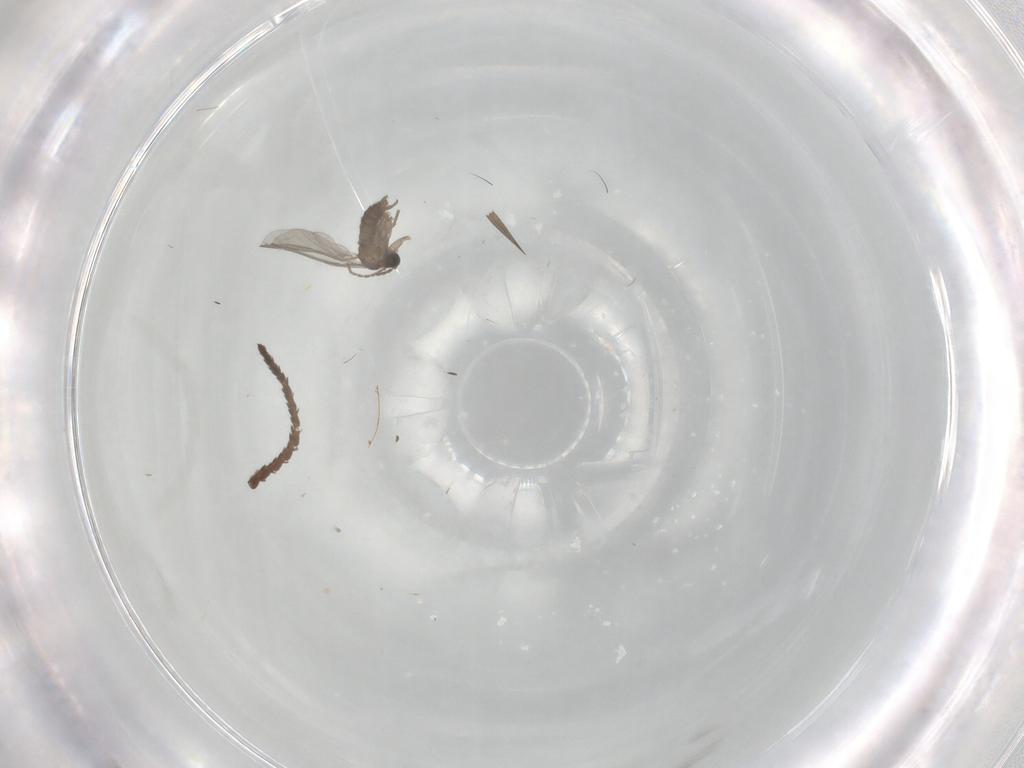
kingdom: Animalia
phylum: Arthropoda
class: Insecta
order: Diptera
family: Sciaridae
